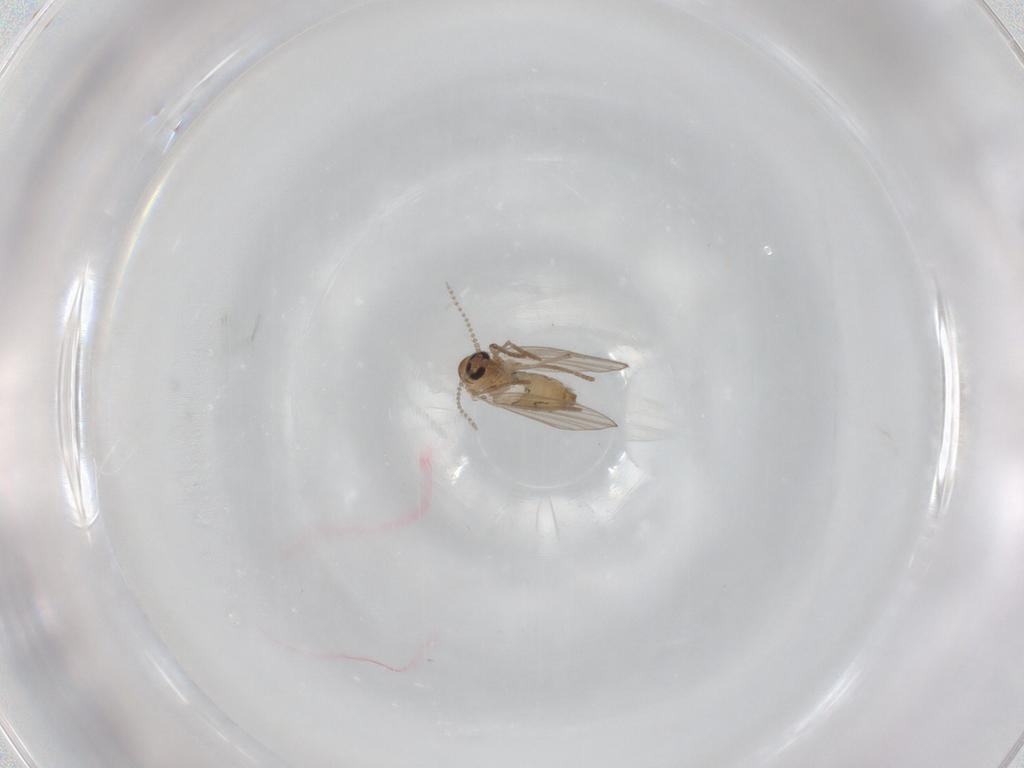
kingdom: Animalia
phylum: Arthropoda
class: Insecta
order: Diptera
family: Psychodidae
